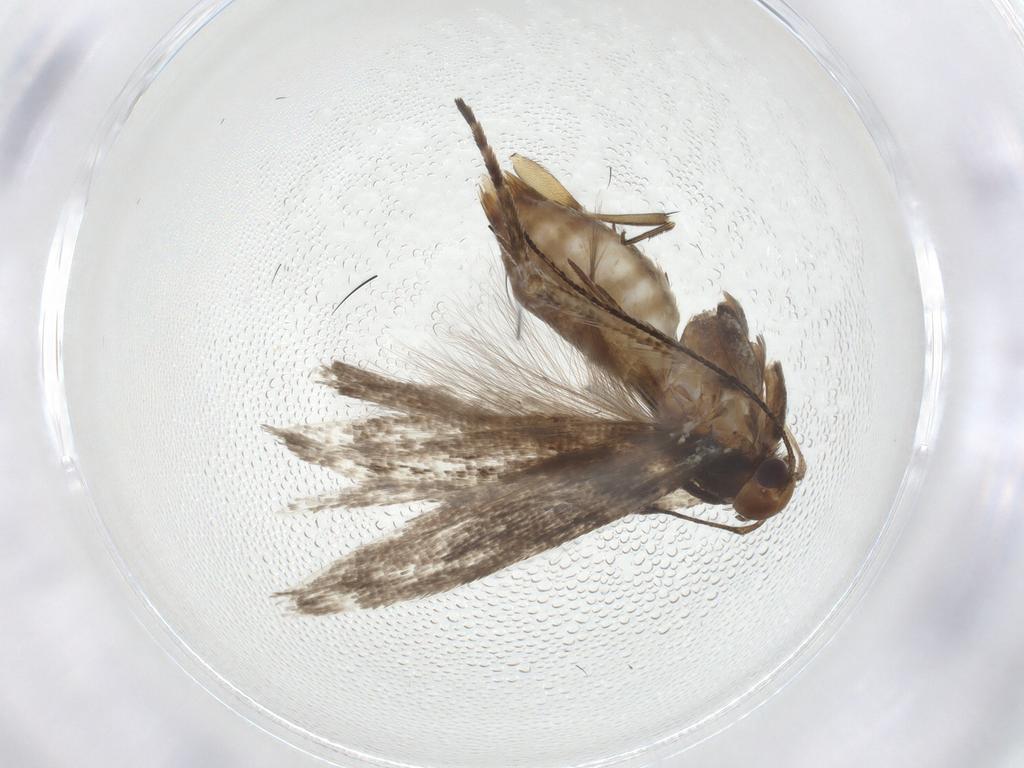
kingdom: Animalia
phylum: Arthropoda
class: Insecta
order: Lepidoptera
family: Gelechiidae
